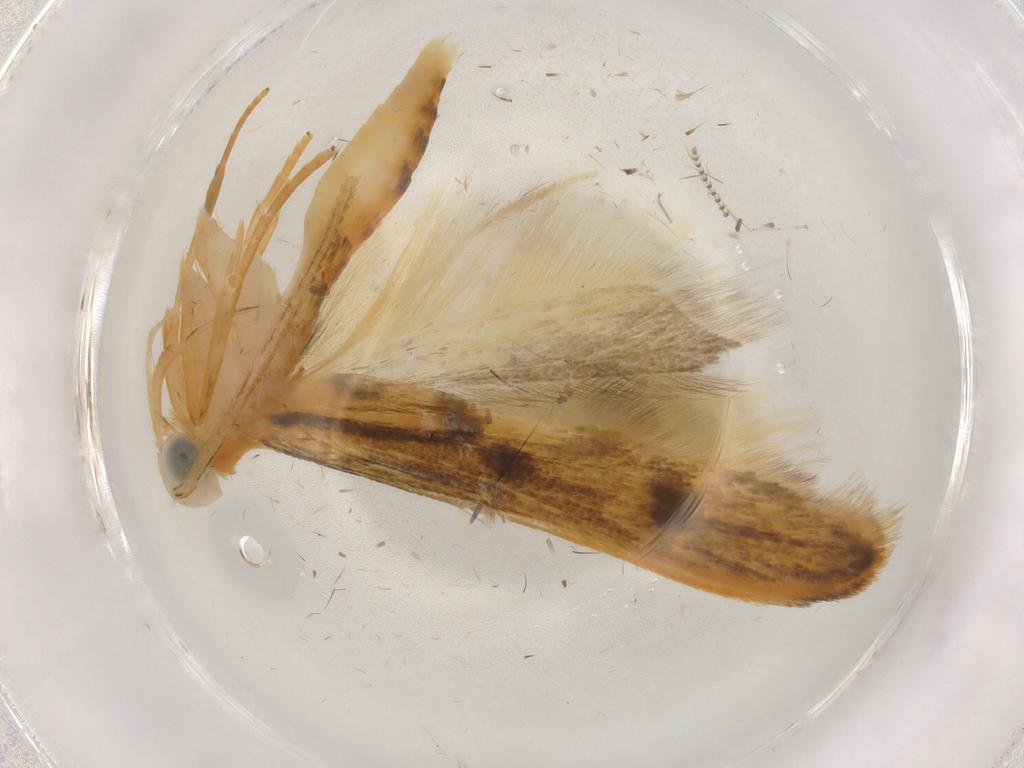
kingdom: Animalia
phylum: Arthropoda
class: Insecta
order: Lepidoptera
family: Autostichidae
